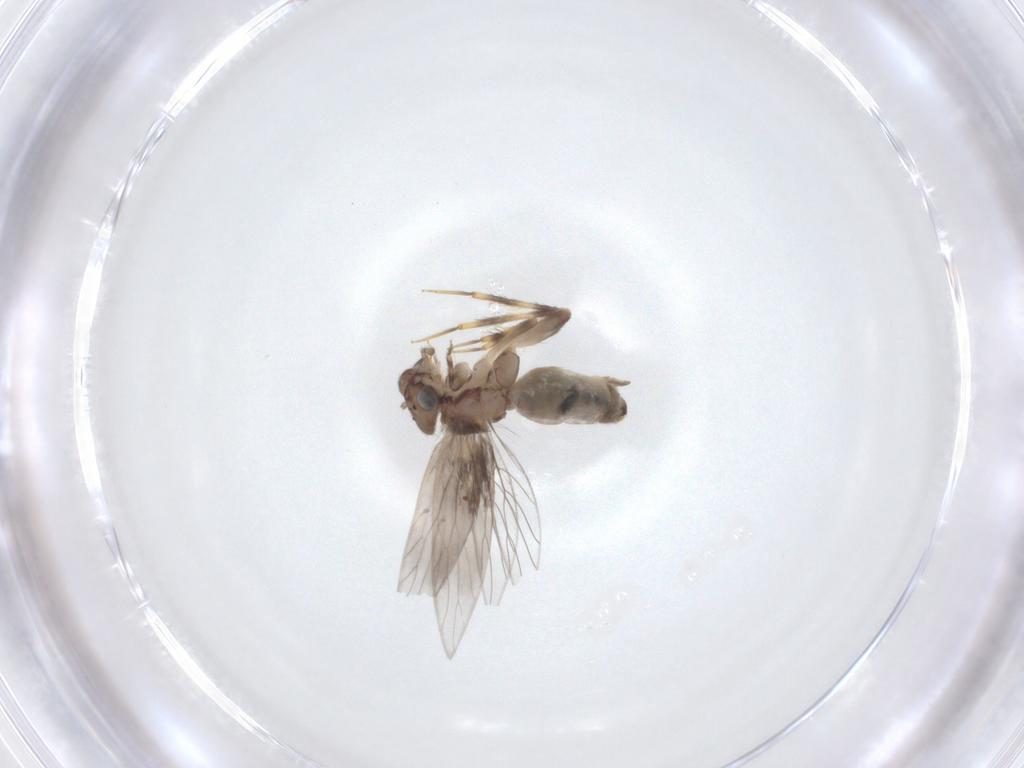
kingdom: Animalia
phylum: Arthropoda
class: Insecta
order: Psocodea
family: Lepidopsocidae
